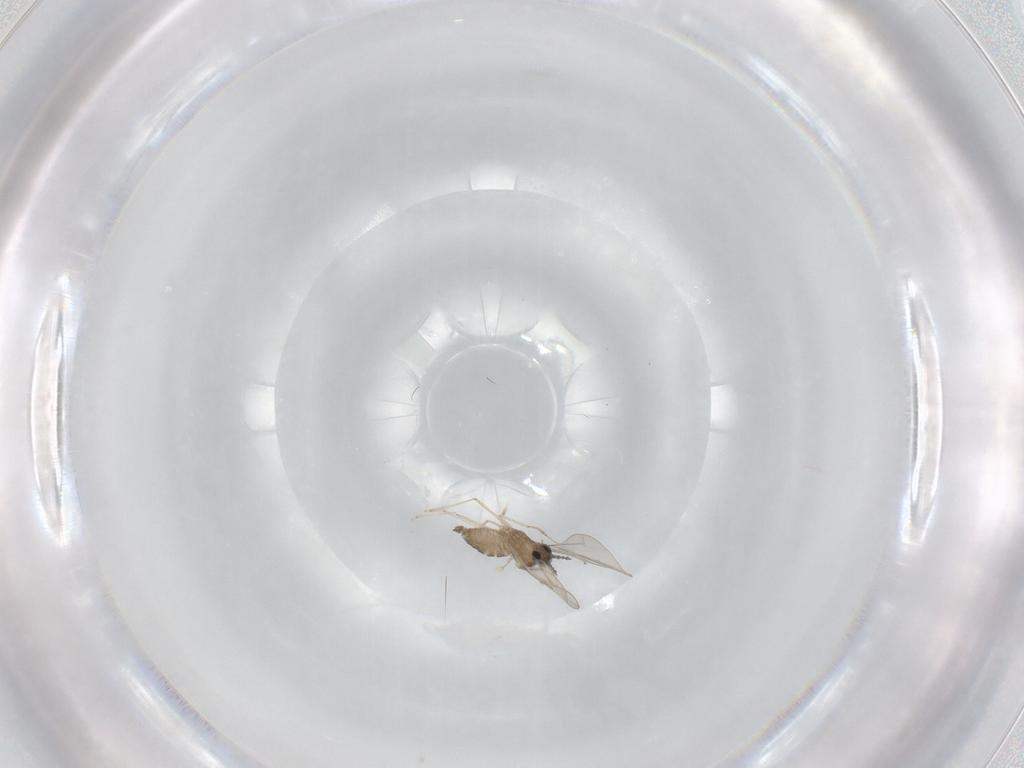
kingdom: Animalia
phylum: Arthropoda
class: Insecta
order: Diptera
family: Cecidomyiidae
